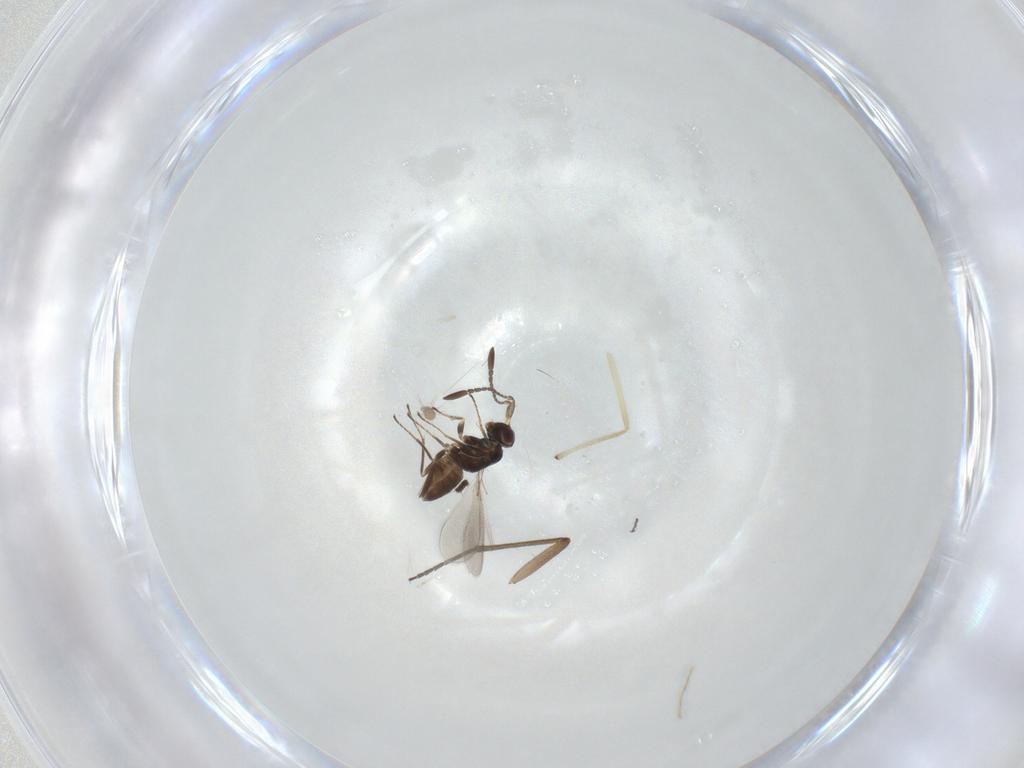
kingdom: Animalia
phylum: Arthropoda
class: Insecta
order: Hymenoptera
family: Mymaridae
